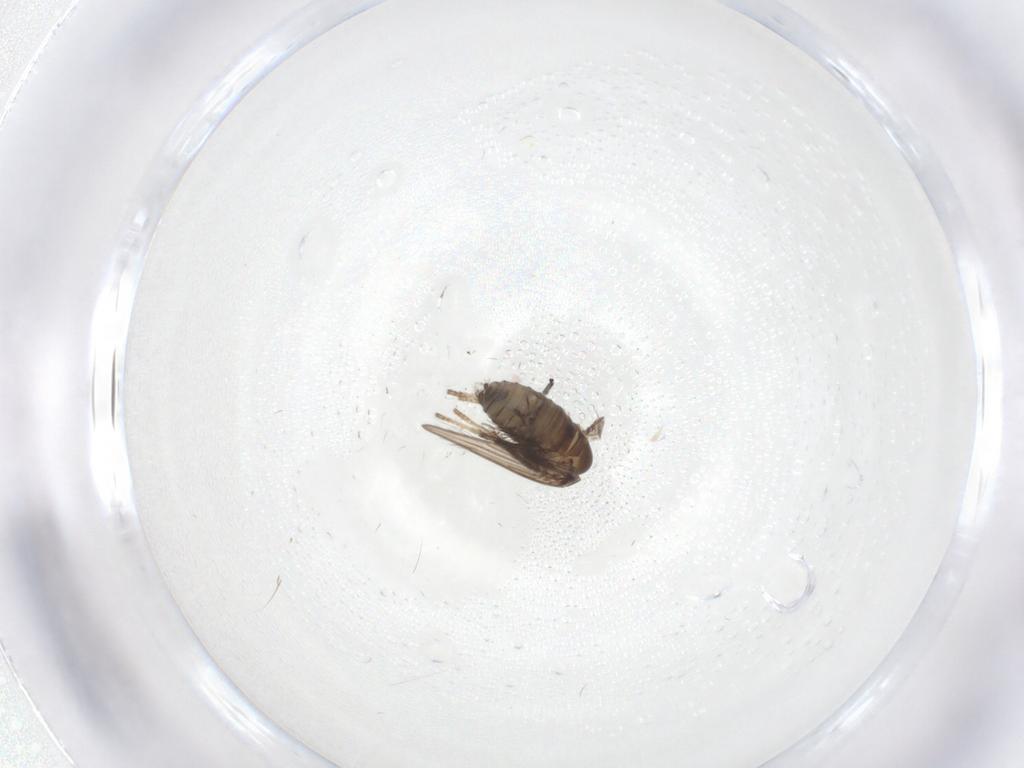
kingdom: Animalia
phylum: Arthropoda
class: Insecta
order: Diptera
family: Psychodidae
